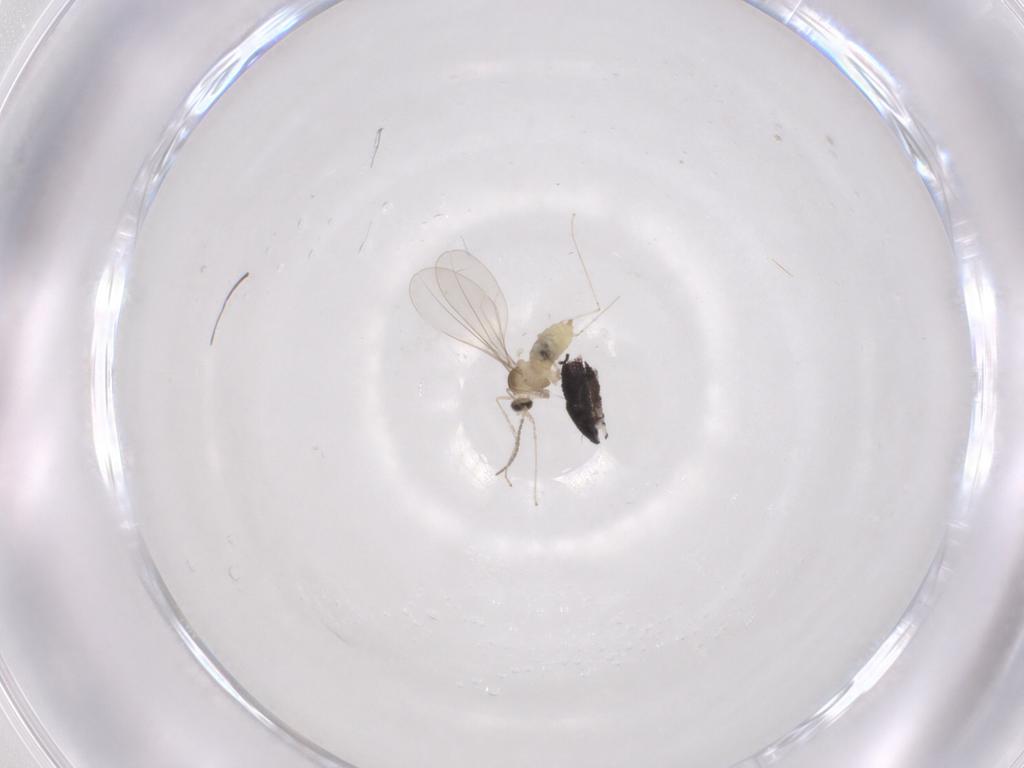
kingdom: Animalia
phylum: Arthropoda
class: Insecta
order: Diptera
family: Limoniidae
